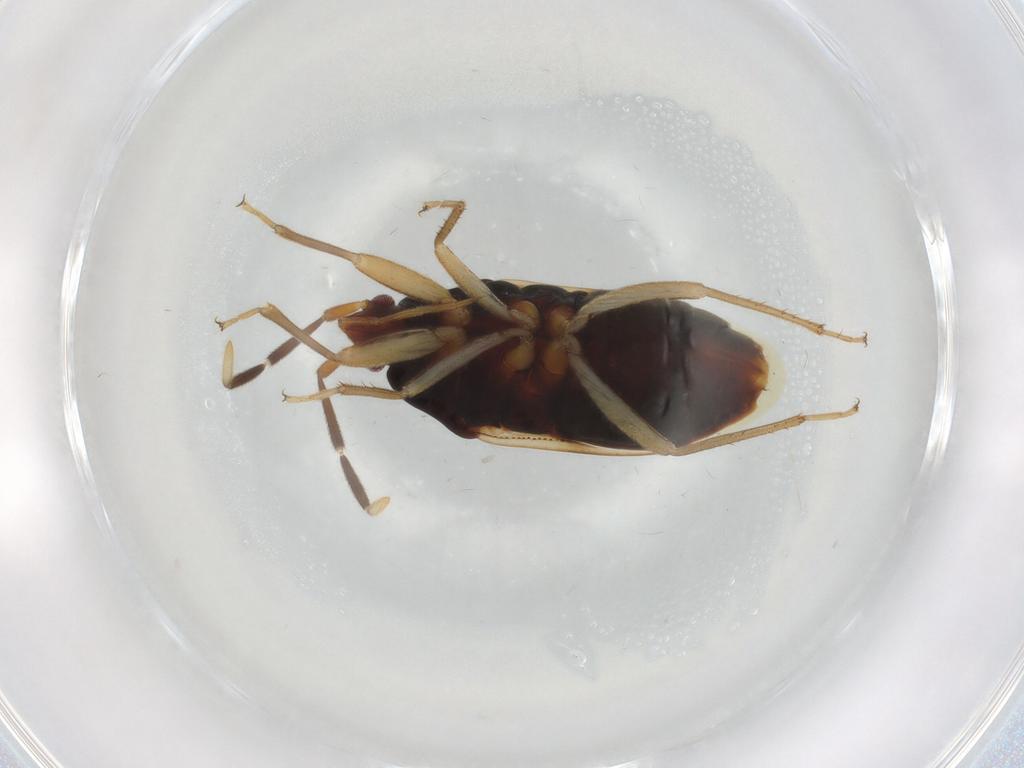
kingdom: Animalia
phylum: Arthropoda
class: Insecta
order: Hemiptera
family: Rhyparochromidae
